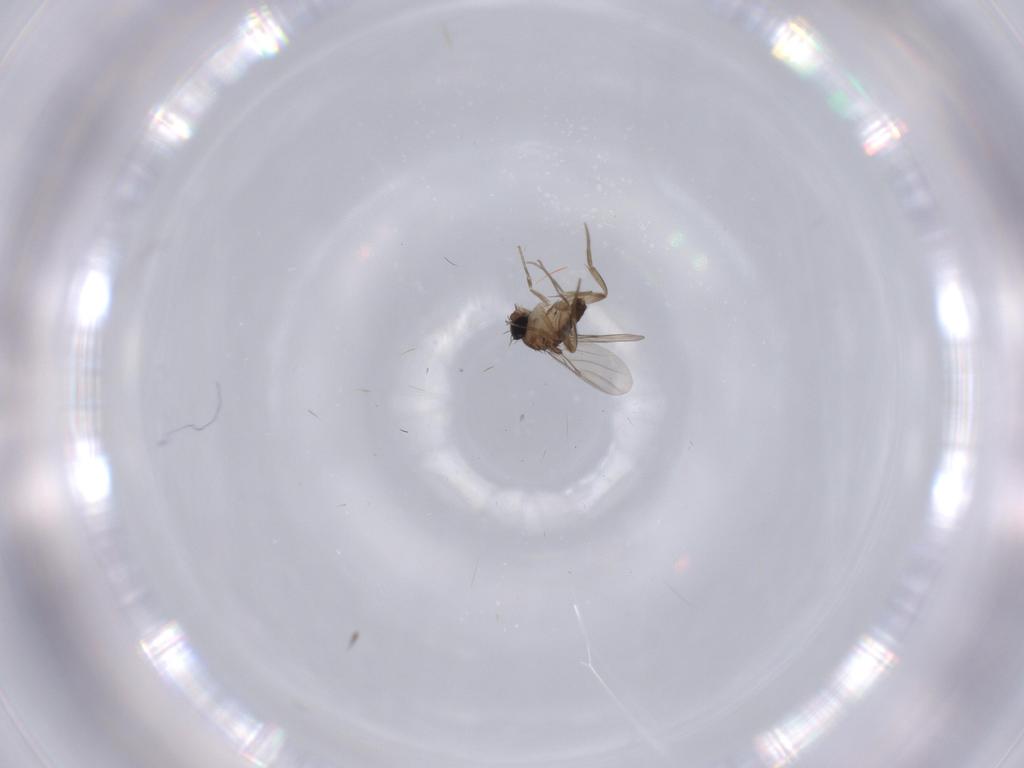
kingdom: Animalia
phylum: Arthropoda
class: Insecta
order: Diptera
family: Phoridae
